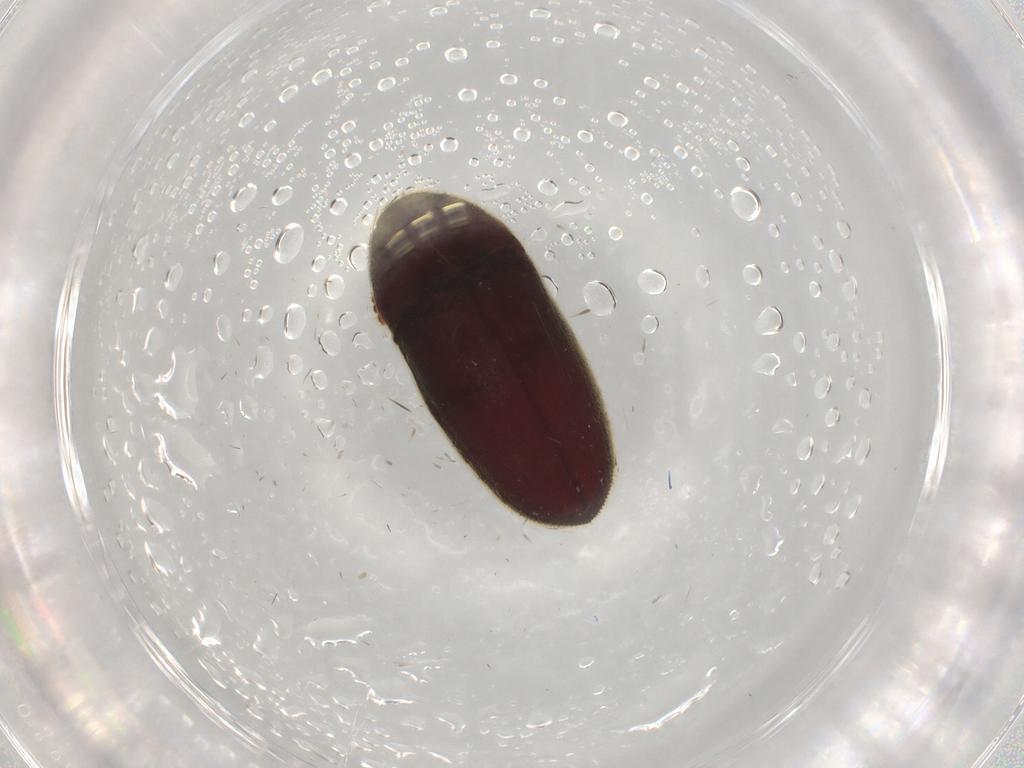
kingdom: Animalia
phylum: Arthropoda
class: Insecta
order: Coleoptera
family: Throscidae
